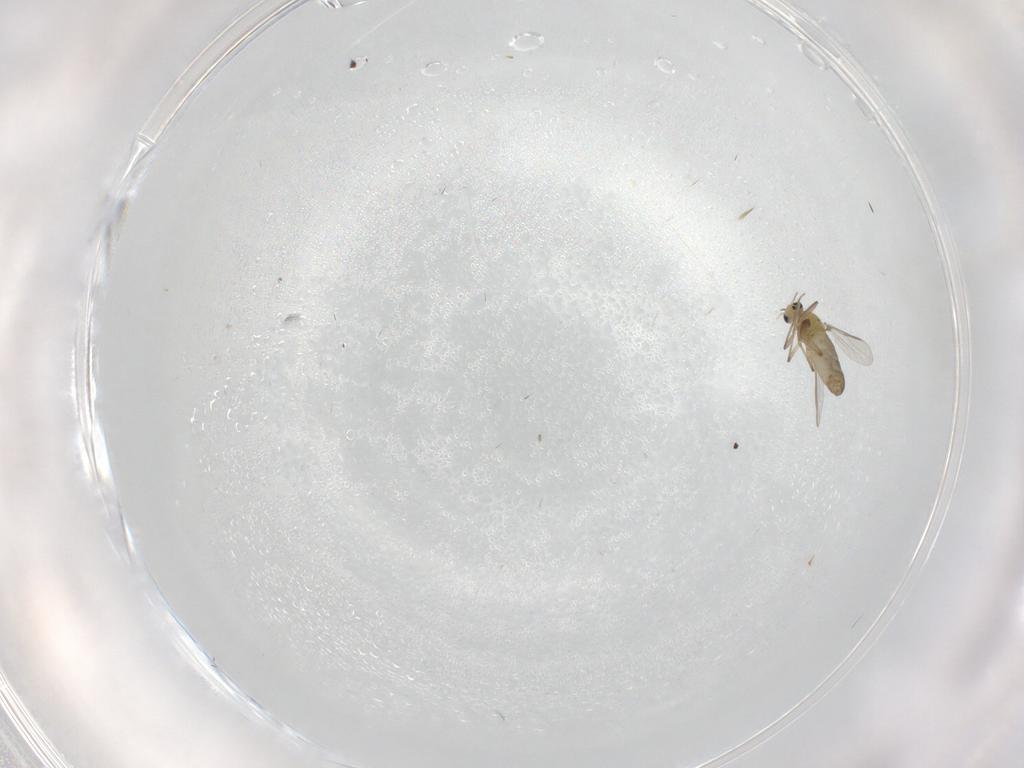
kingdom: Animalia
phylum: Arthropoda
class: Insecta
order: Diptera
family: Chironomidae
